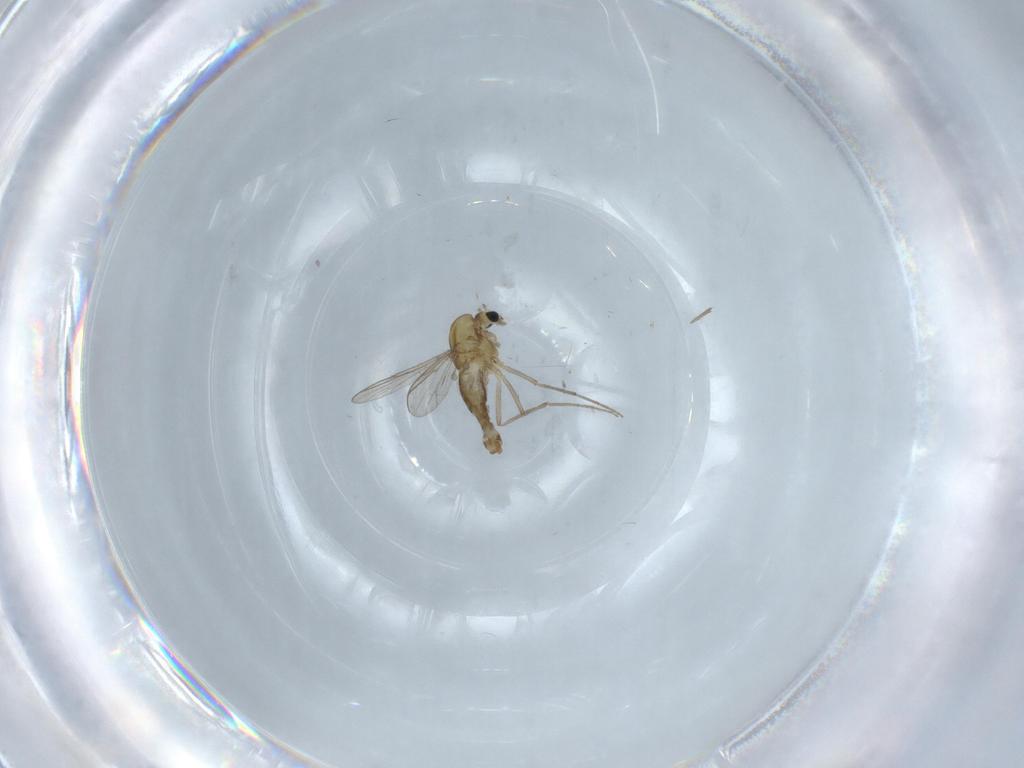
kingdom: Animalia
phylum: Arthropoda
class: Insecta
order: Diptera
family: Chironomidae
